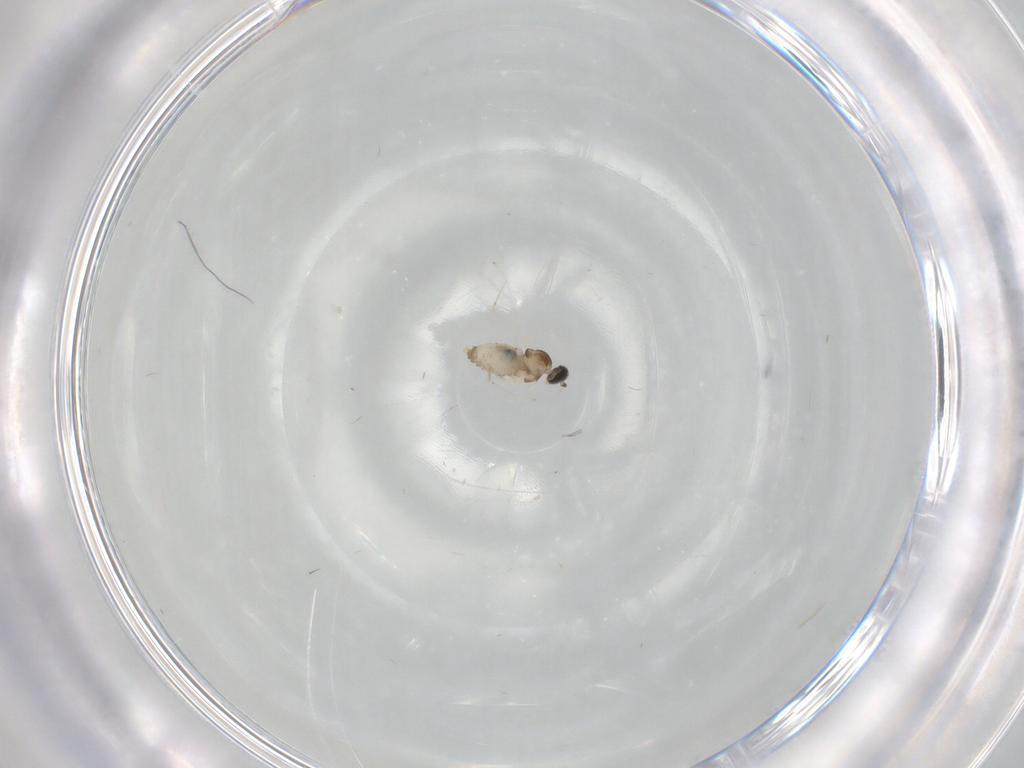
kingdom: Animalia
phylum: Arthropoda
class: Insecta
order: Diptera
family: Cecidomyiidae
